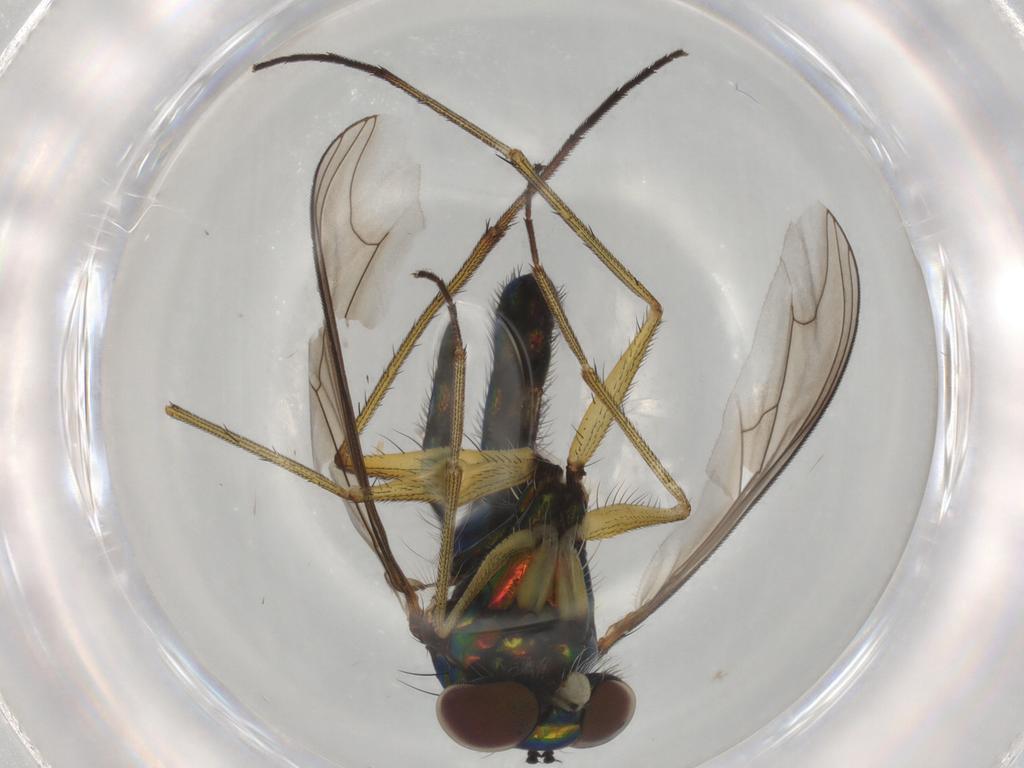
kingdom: Animalia
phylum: Arthropoda
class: Insecta
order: Diptera
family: Dolichopodidae
